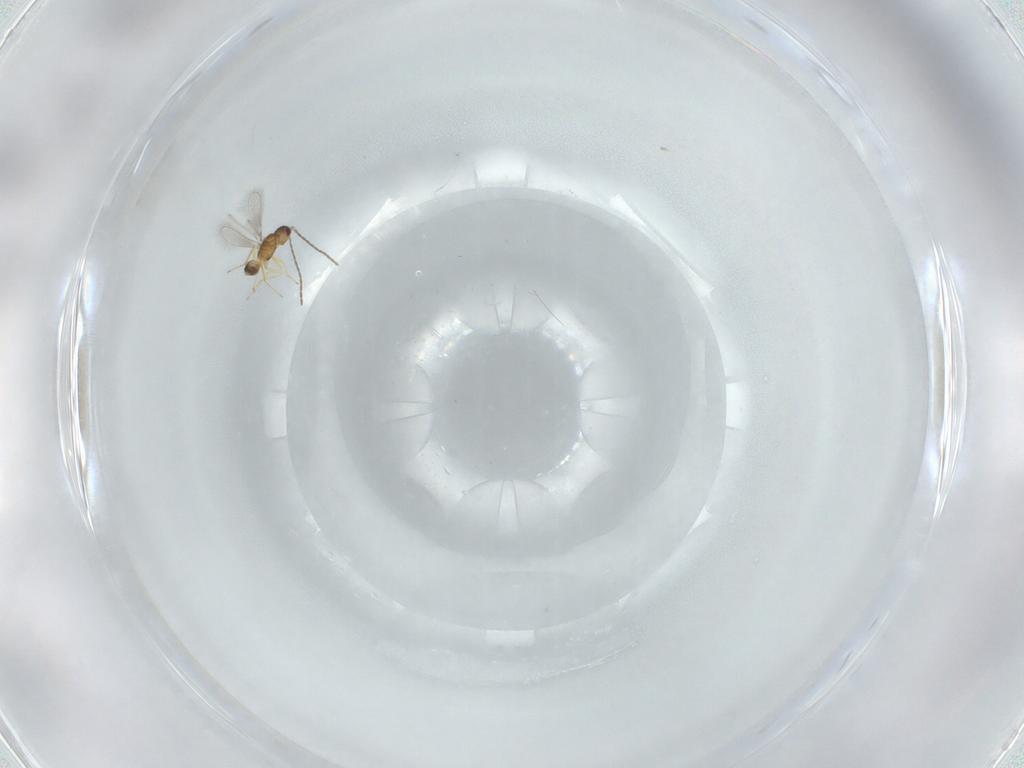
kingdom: Animalia
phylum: Arthropoda
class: Insecta
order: Hymenoptera
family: Mymaridae
